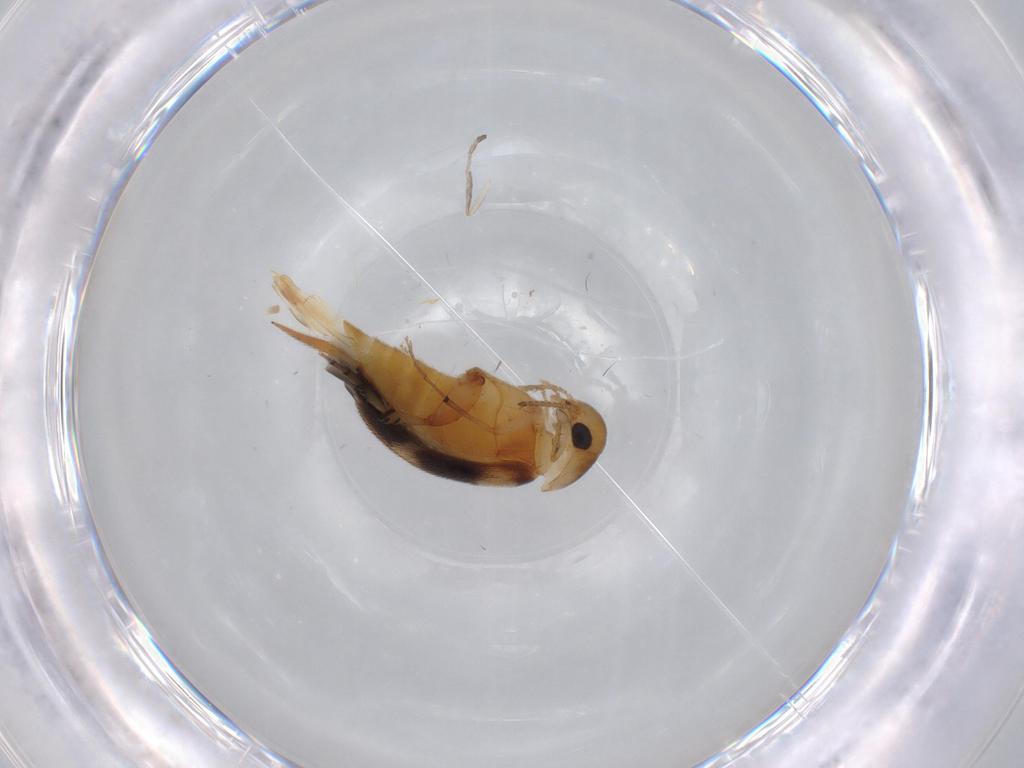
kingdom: Animalia
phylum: Arthropoda
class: Insecta
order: Coleoptera
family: Mordellidae
